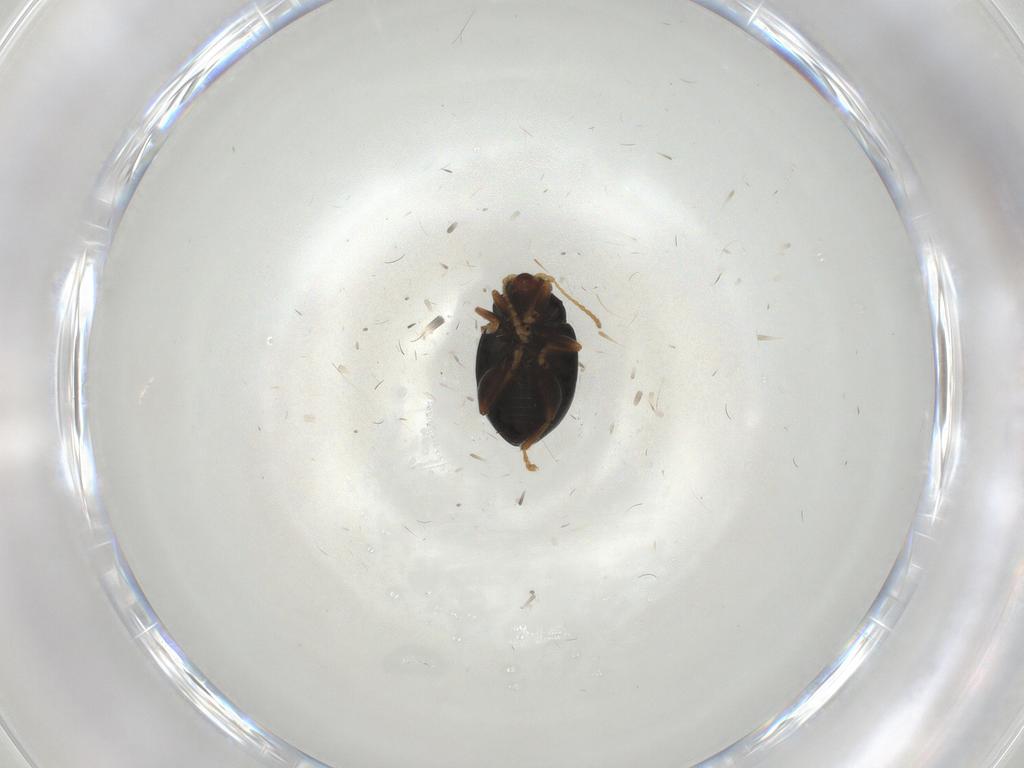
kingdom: Animalia
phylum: Arthropoda
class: Insecta
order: Coleoptera
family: Chrysomelidae
